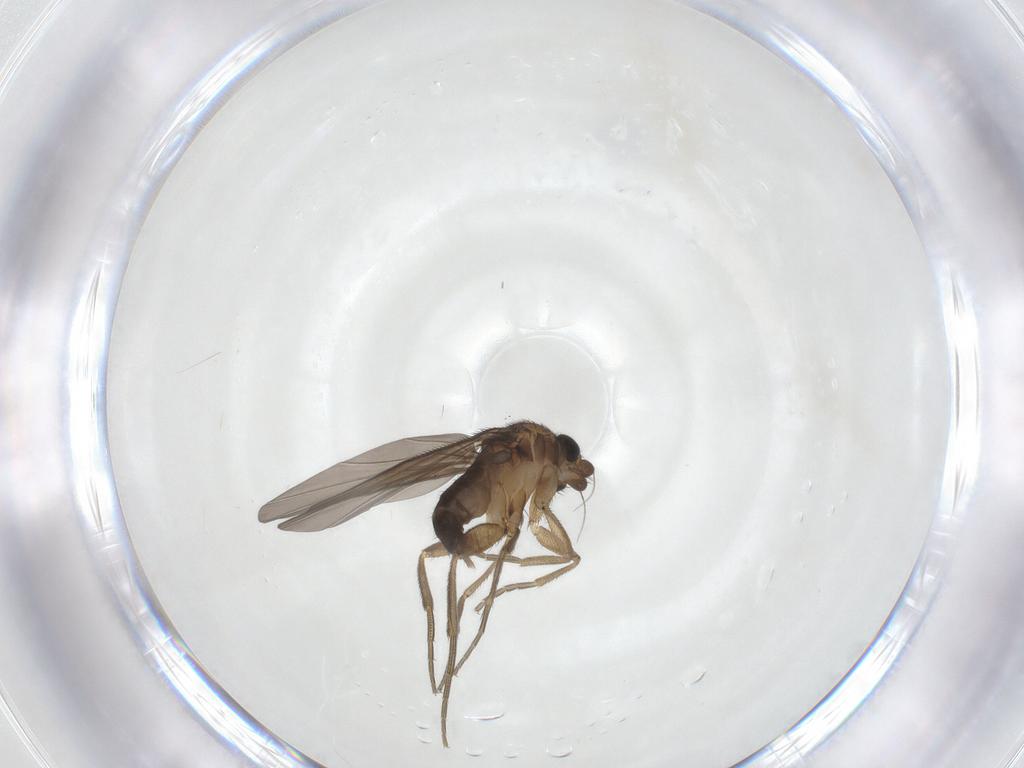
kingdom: Animalia
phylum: Arthropoda
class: Insecta
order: Diptera
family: Phoridae
